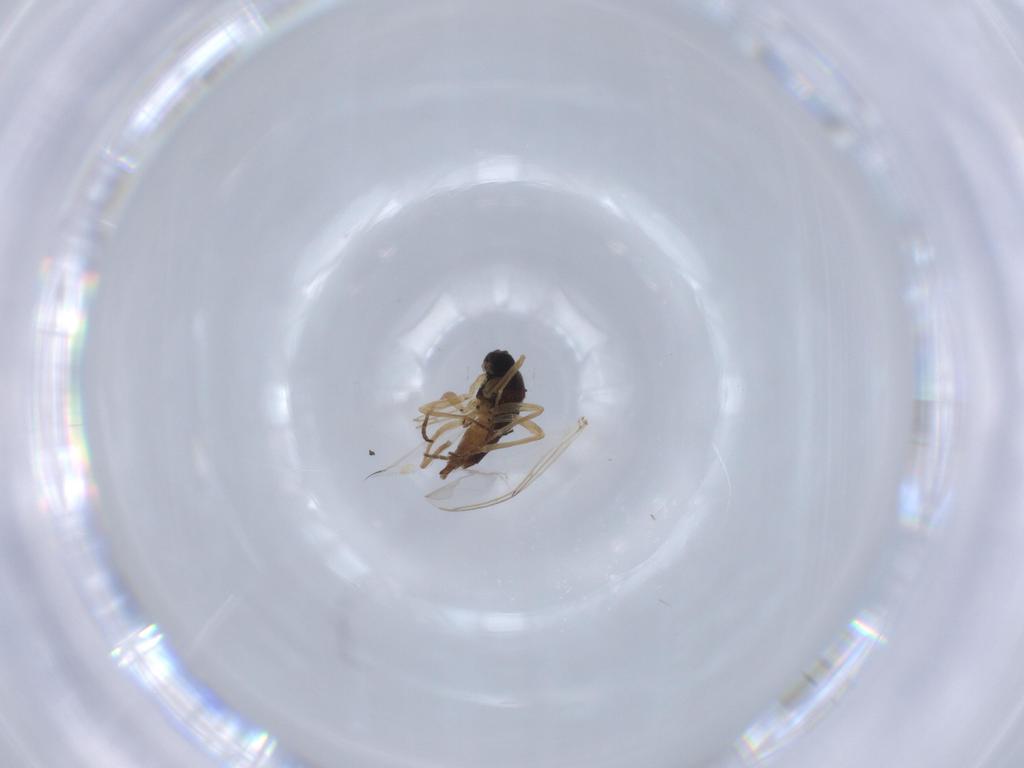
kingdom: Animalia
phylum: Arthropoda
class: Insecta
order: Diptera
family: Sciaridae
